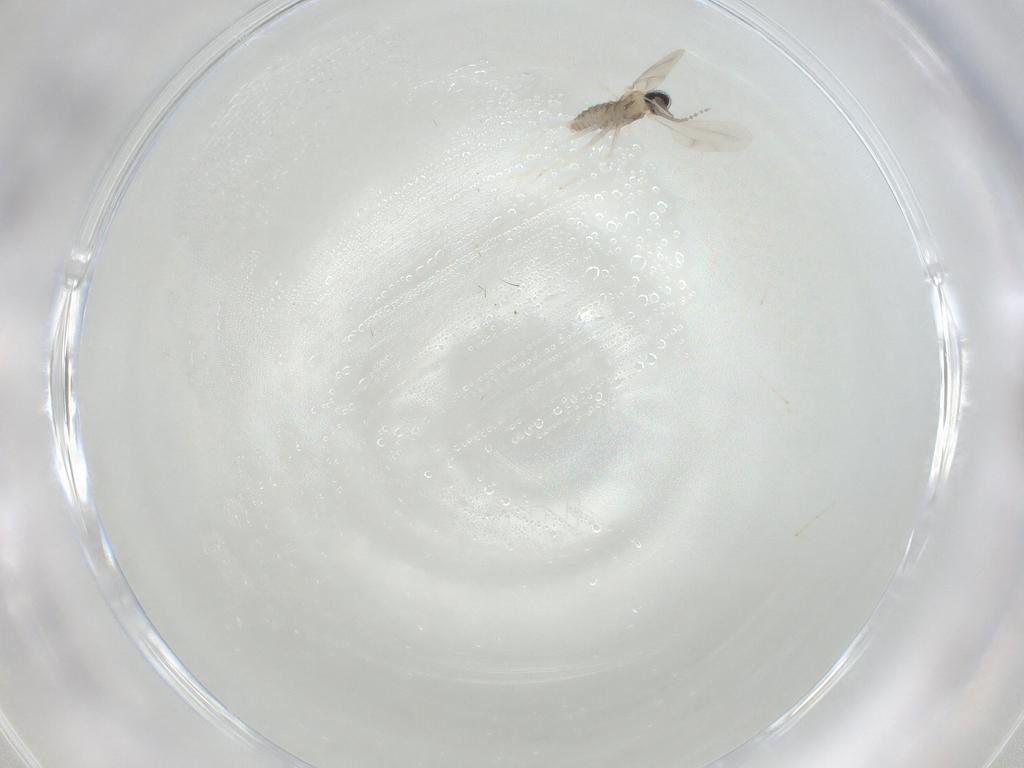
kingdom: Animalia
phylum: Arthropoda
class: Insecta
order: Diptera
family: Cecidomyiidae
